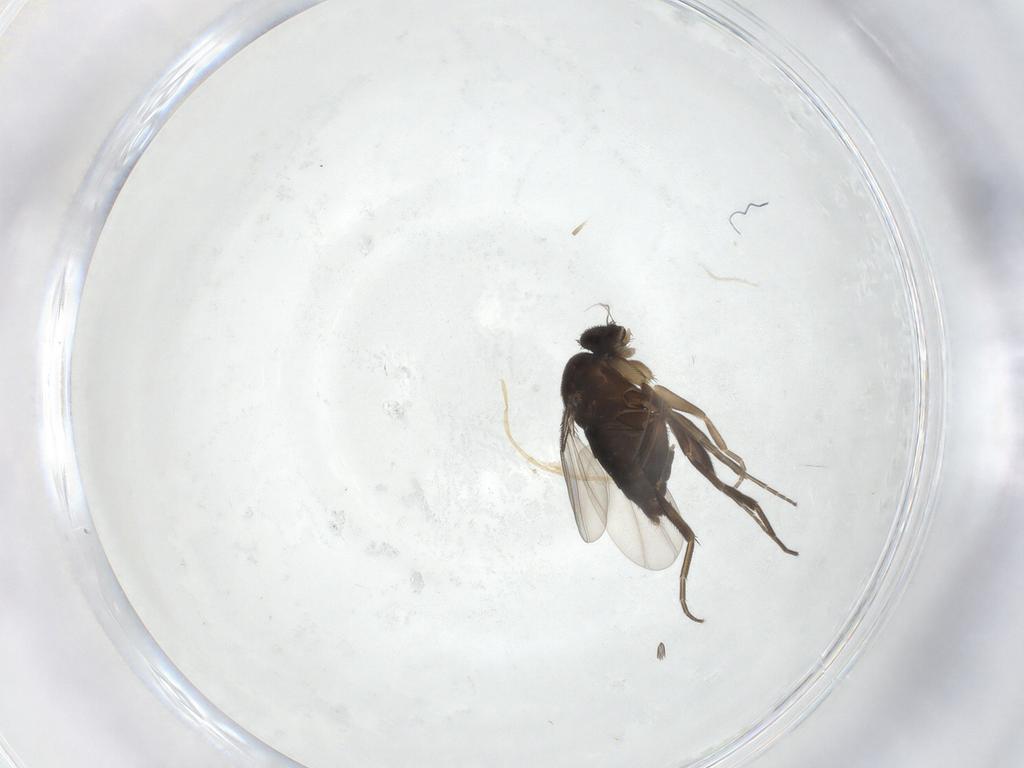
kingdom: Animalia
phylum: Arthropoda
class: Insecta
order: Diptera
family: Phoridae
